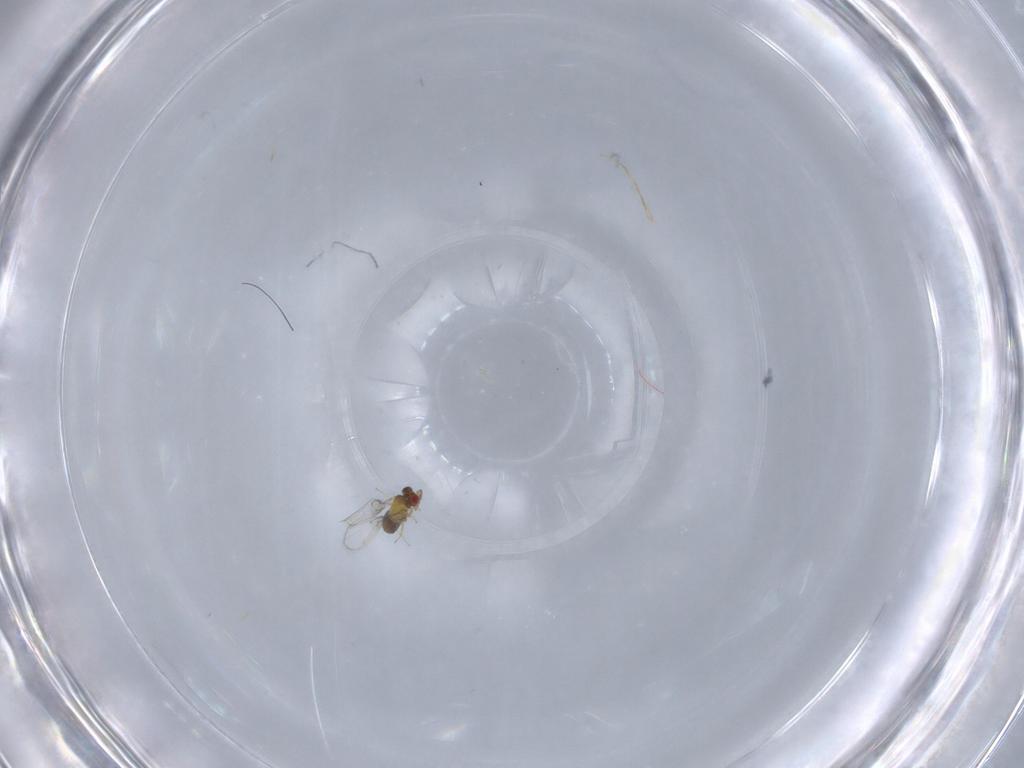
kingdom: Animalia
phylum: Arthropoda
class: Insecta
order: Hymenoptera
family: Trichogrammatidae
